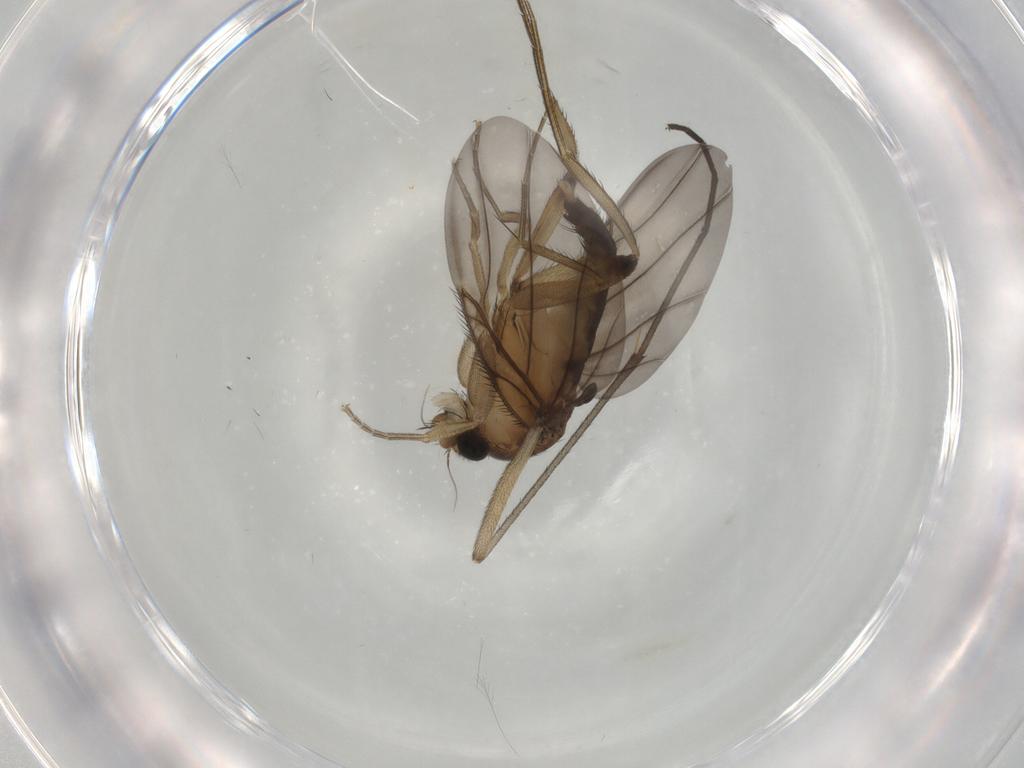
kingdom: Animalia
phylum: Arthropoda
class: Insecta
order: Diptera
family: Phoridae
